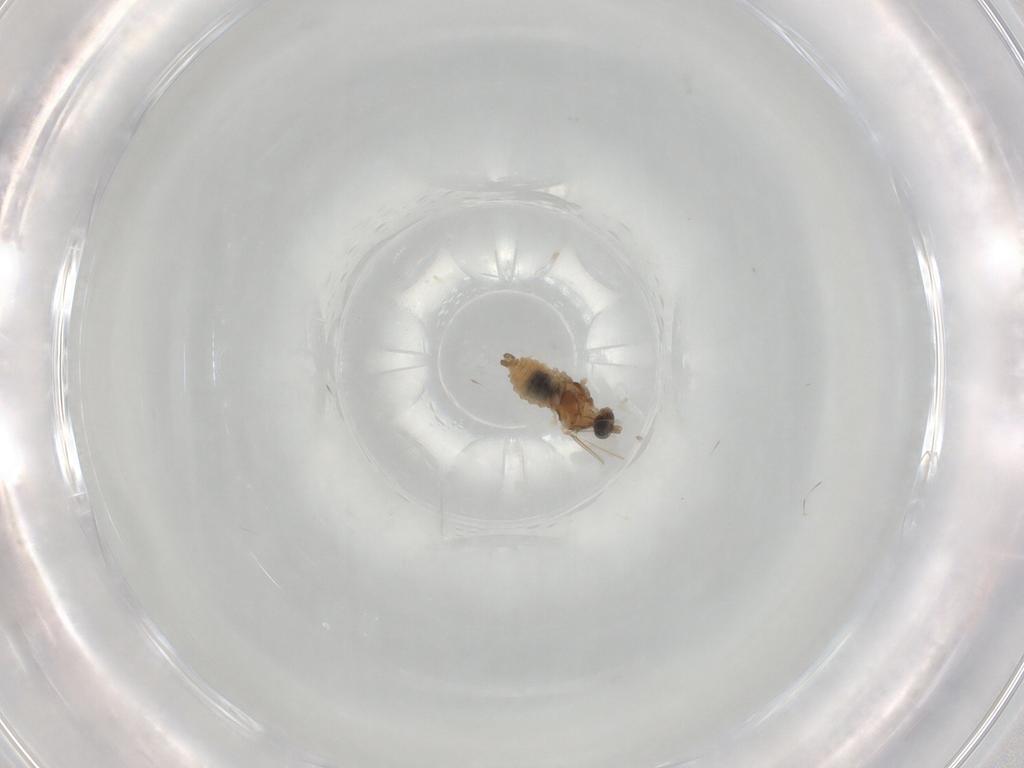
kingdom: Animalia
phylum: Arthropoda
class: Insecta
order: Diptera
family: Cecidomyiidae
